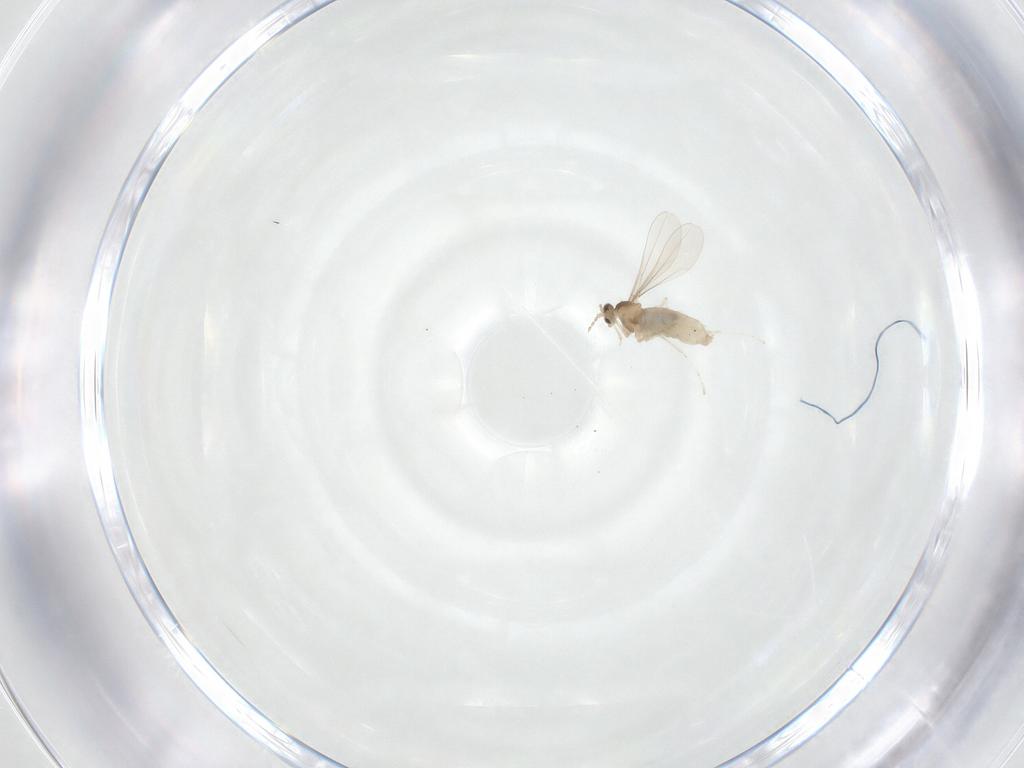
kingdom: Animalia
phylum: Arthropoda
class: Insecta
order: Diptera
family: Cecidomyiidae
